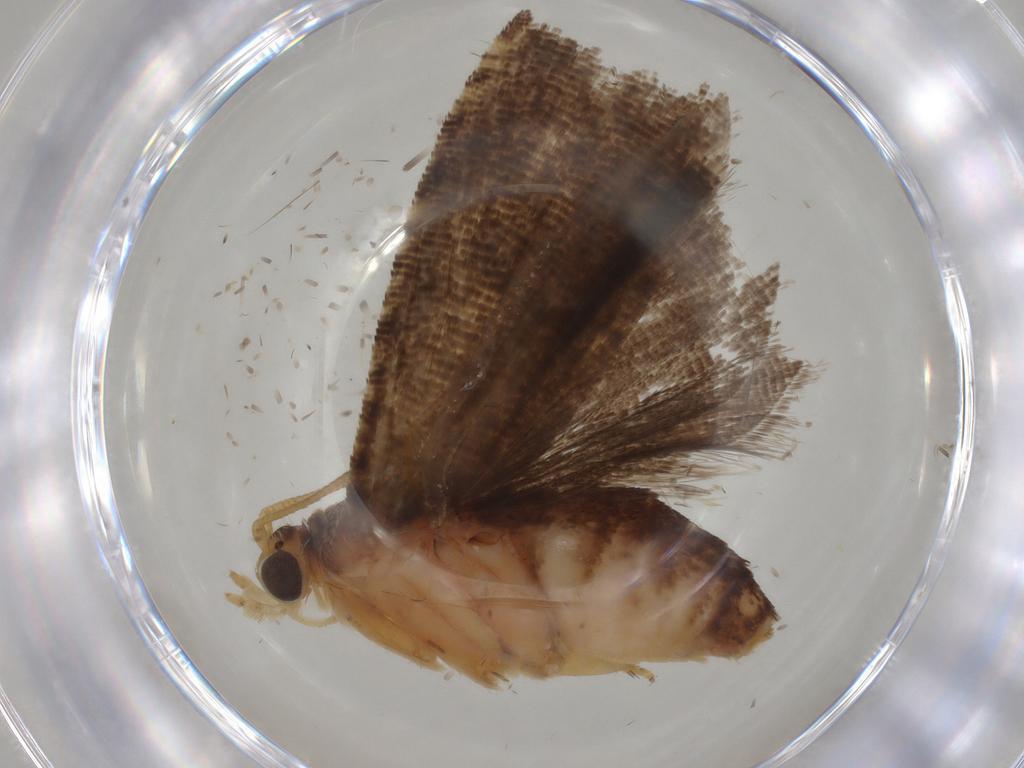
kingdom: Animalia
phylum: Arthropoda
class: Insecta
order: Lepidoptera
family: Tortricidae
